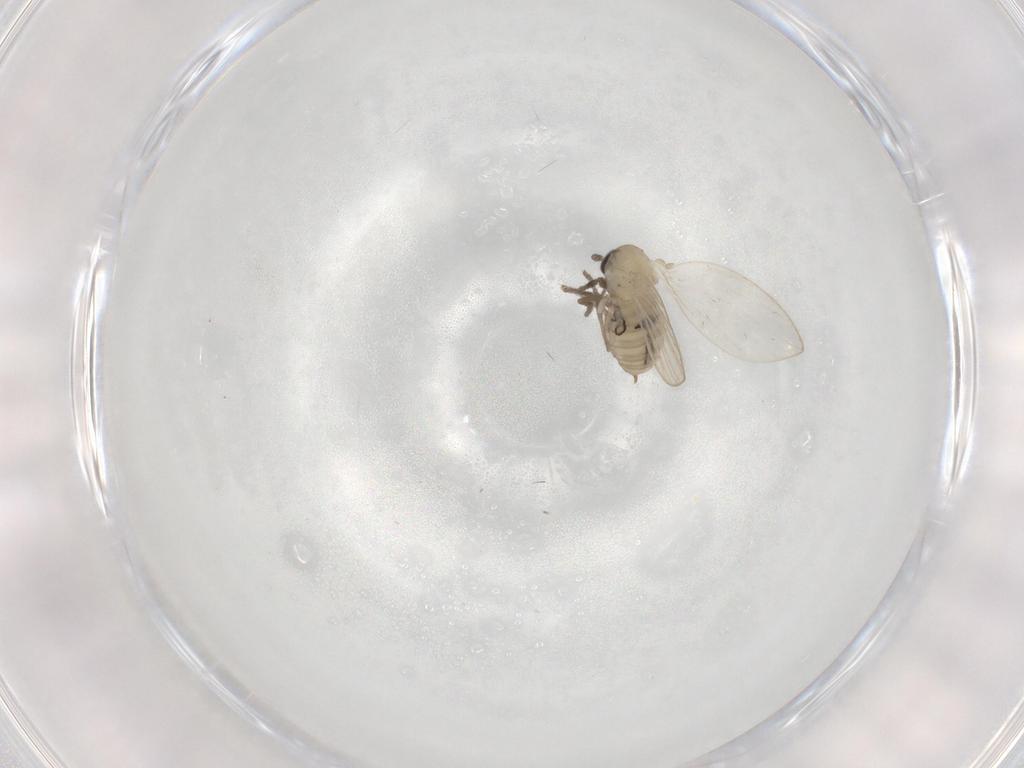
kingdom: Animalia
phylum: Arthropoda
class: Insecta
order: Diptera
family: Psychodidae
